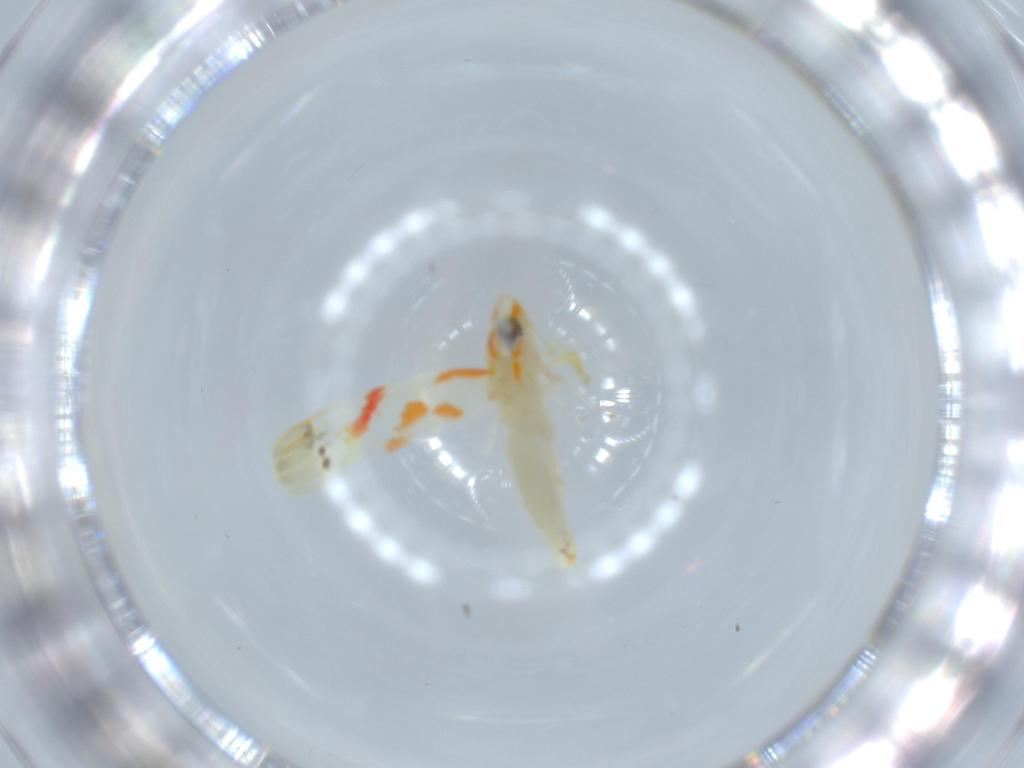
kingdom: Animalia
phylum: Arthropoda
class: Insecta
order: Hemiptera
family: Cicadellidae
